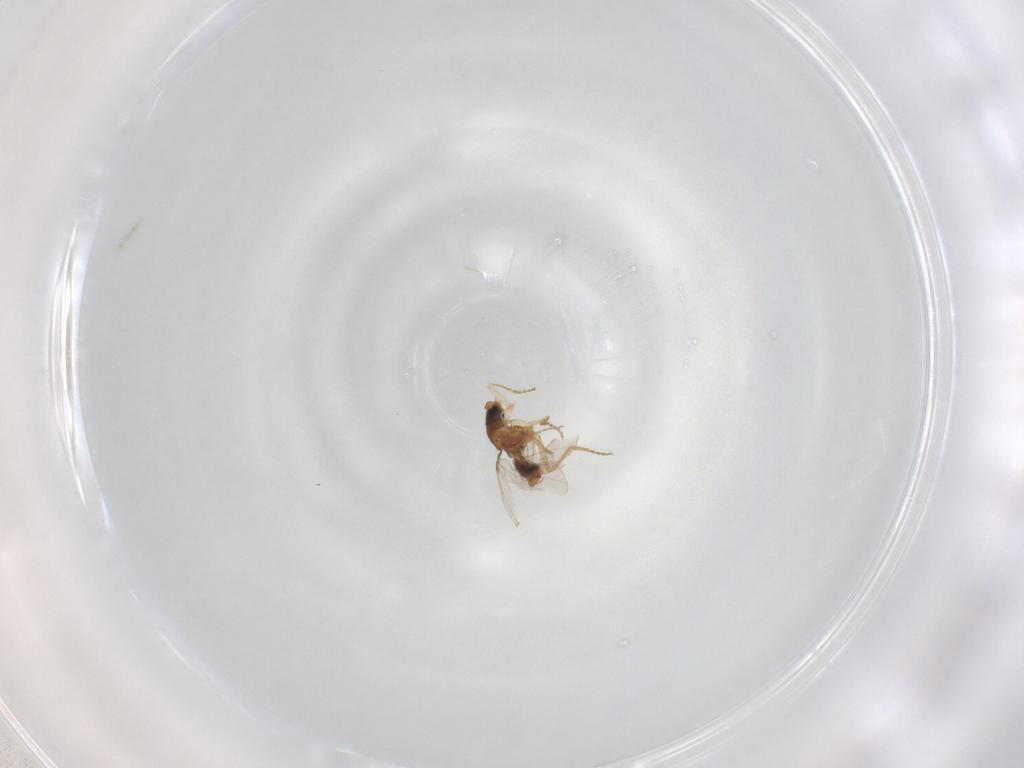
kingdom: Animalia
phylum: Arthropoda
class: Insecta
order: Diptera
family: Phoridae
